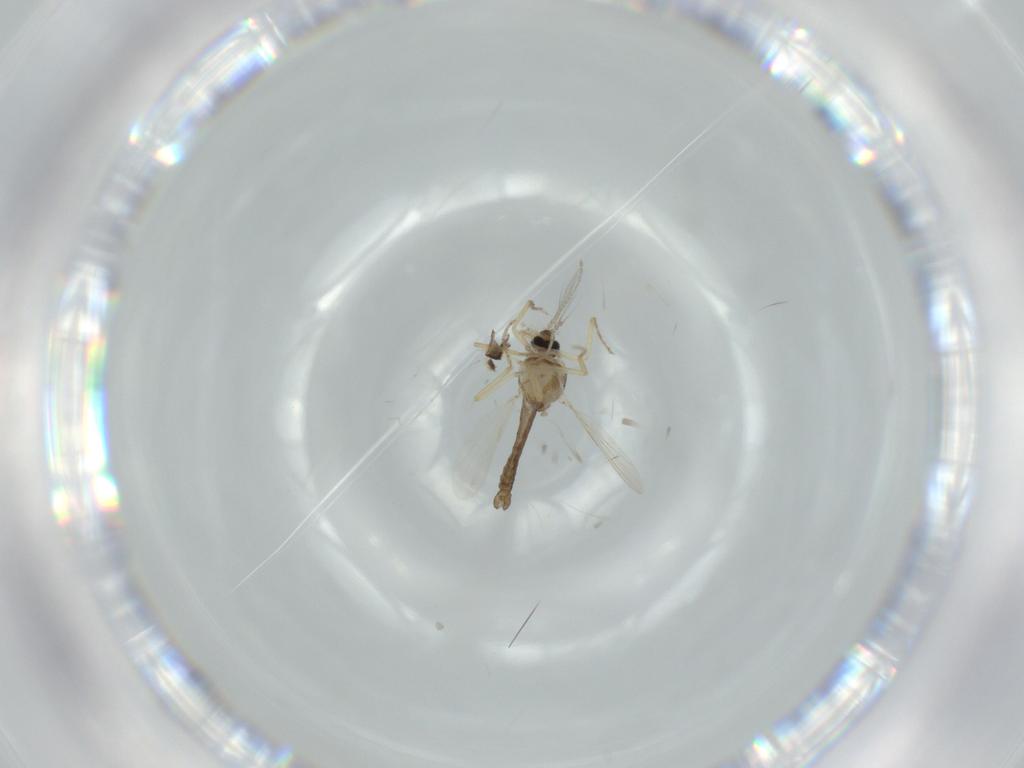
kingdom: Animalia
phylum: Arthropoda
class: Insecta
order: Diptera
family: Ceratopogonidae
